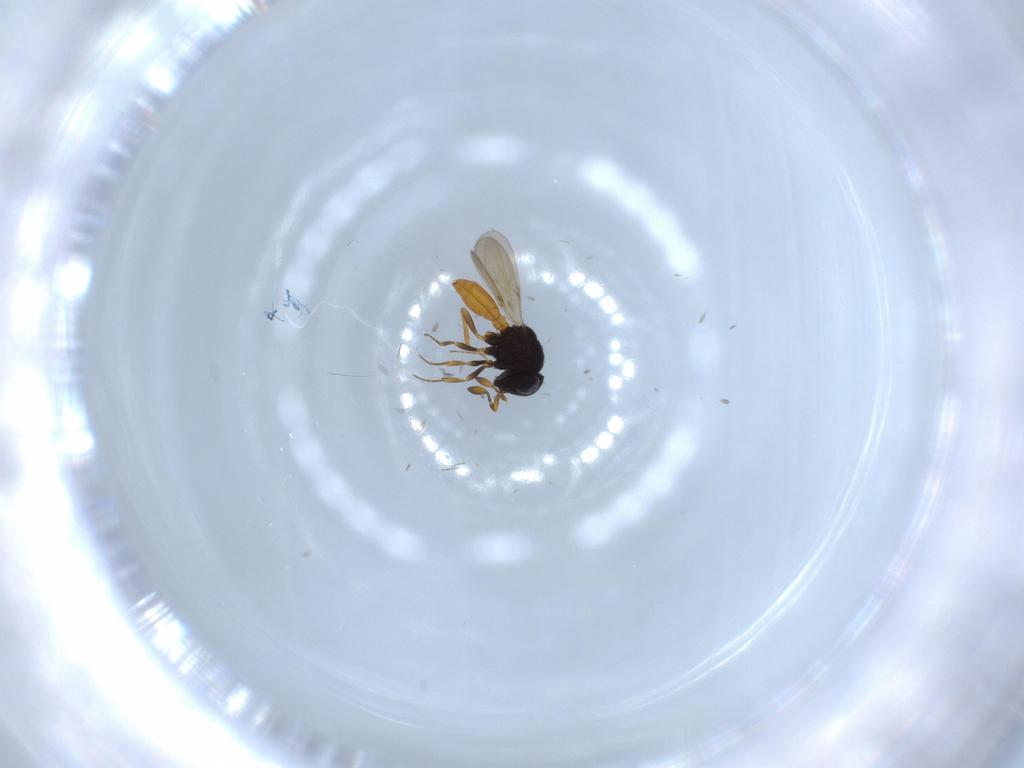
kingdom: Animalia
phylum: Arthropoda
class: Insecta
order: Hymenoptera
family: Scelionidae
